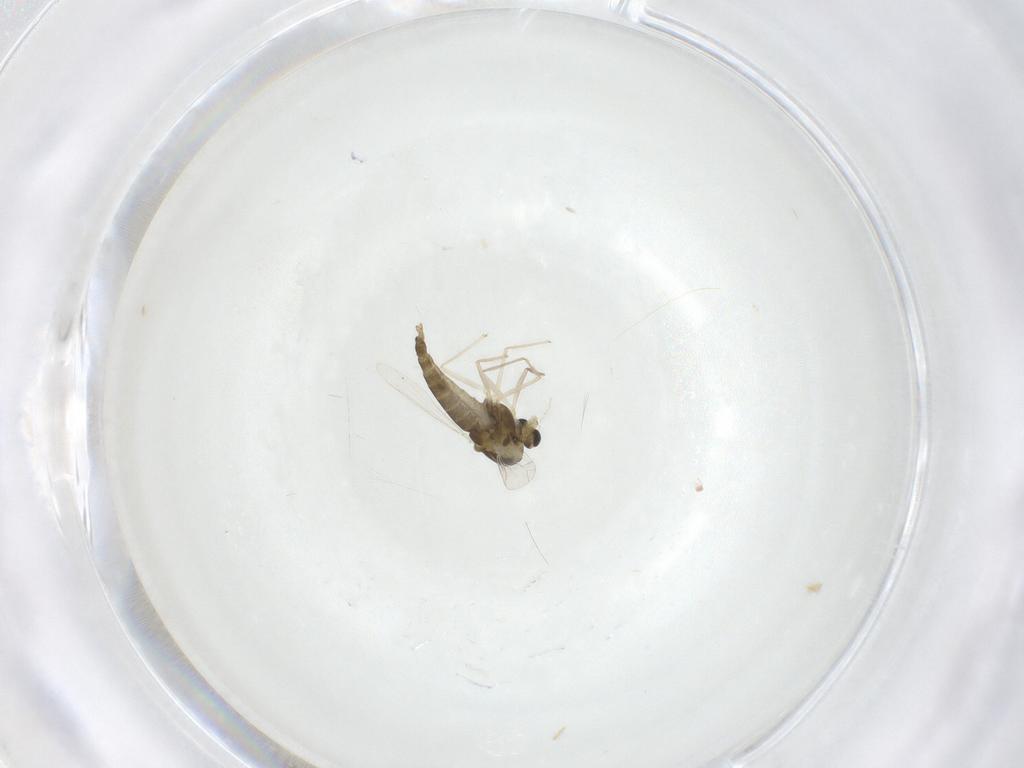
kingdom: Animalia
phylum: Arthropoda
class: Insecta
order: Diptera
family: Chironomidae
